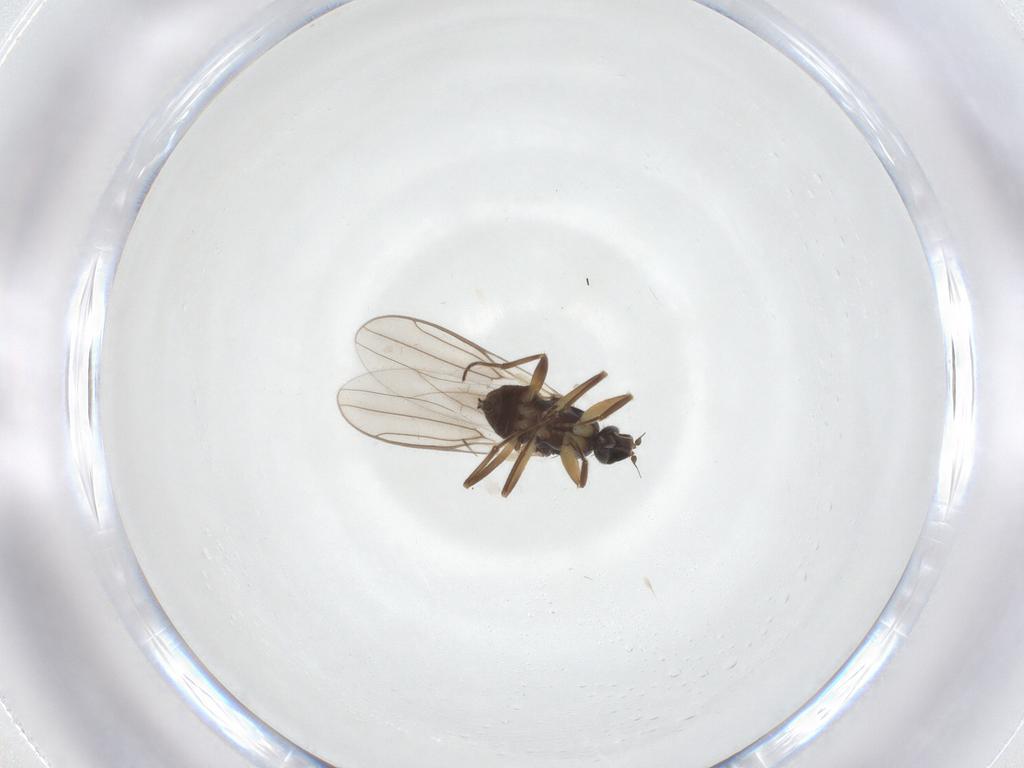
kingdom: Animalia
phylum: Arthropoda
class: Insecta
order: Diptera
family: Hybotidae
